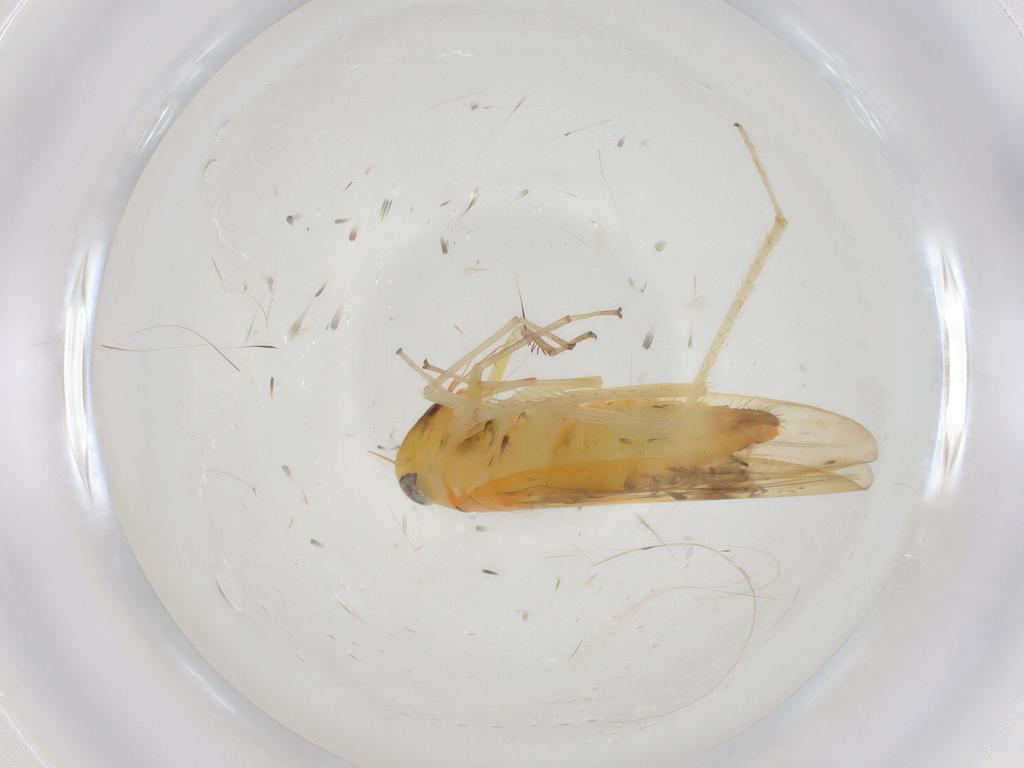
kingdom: Animalia
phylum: Arthropoda
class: Insecta
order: Hemiptera
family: Cicadellidae
